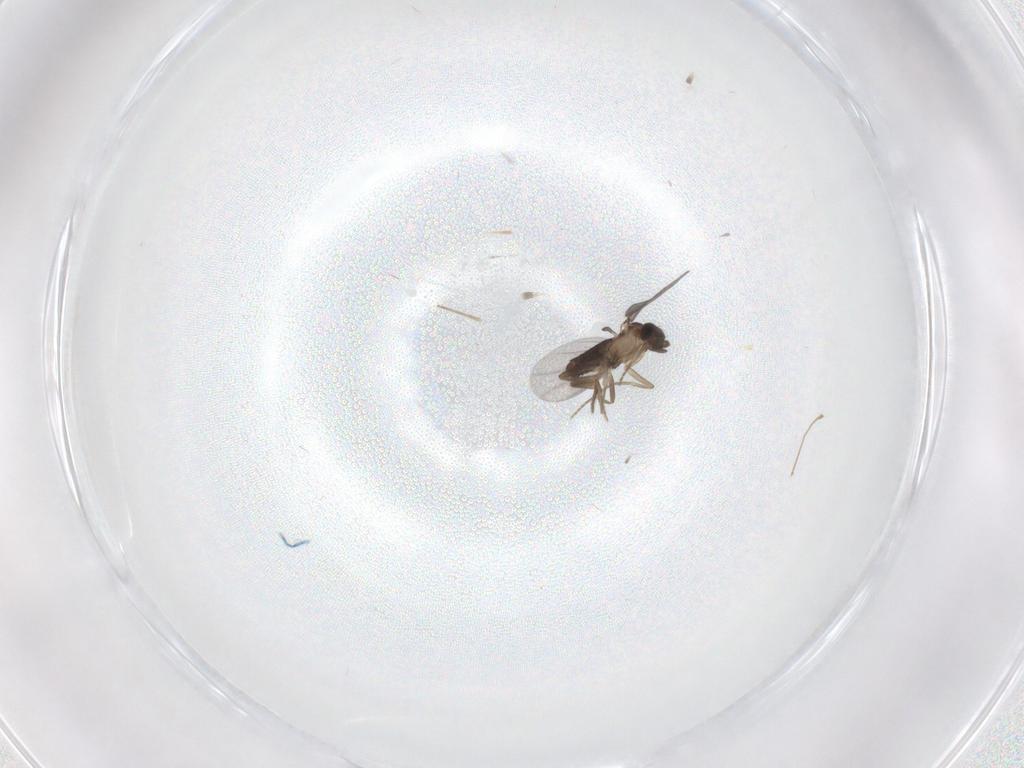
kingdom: Animalia
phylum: Arthropoda
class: Insecta
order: Diptera
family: Cecidomyiidae
